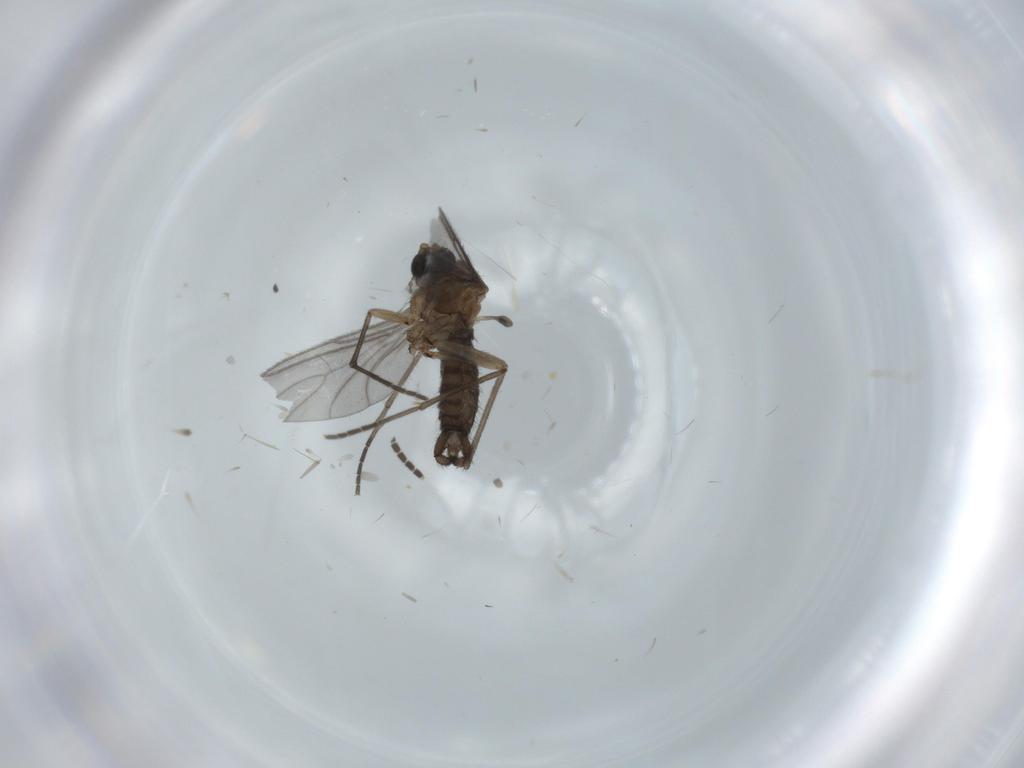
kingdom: Animalia
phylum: Arthropoda
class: Insecta
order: Diptera
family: Sciaridae
